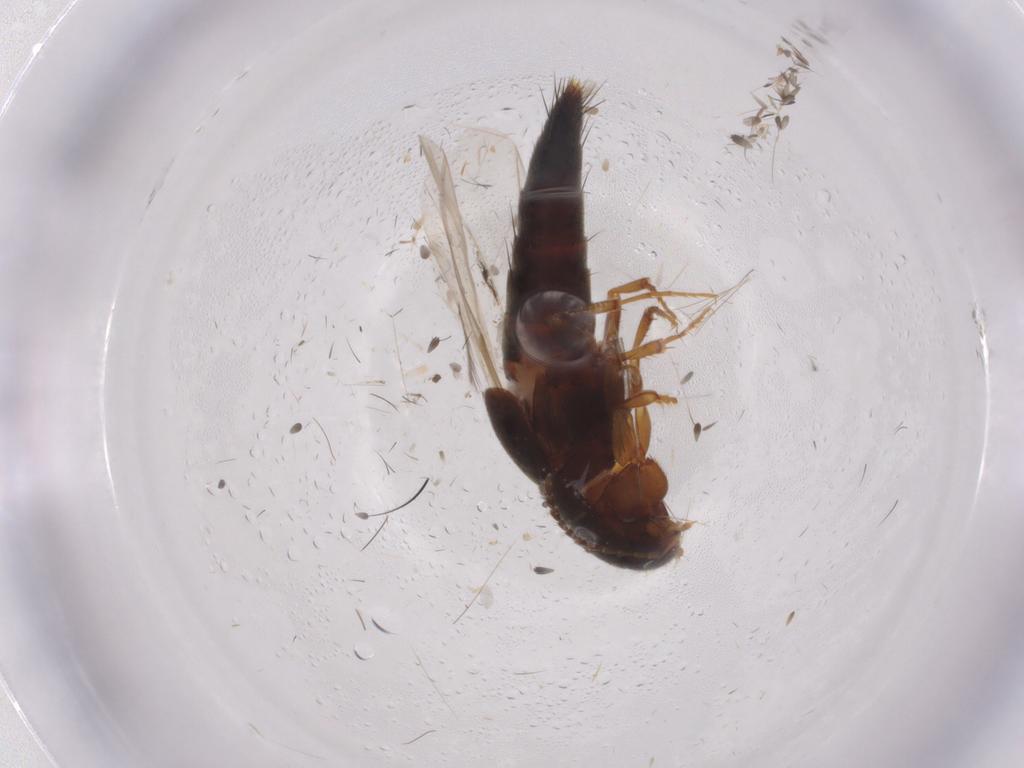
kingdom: Animalia
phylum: Arthropoda
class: Insecta
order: Coleoptera
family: Staphylinidae
